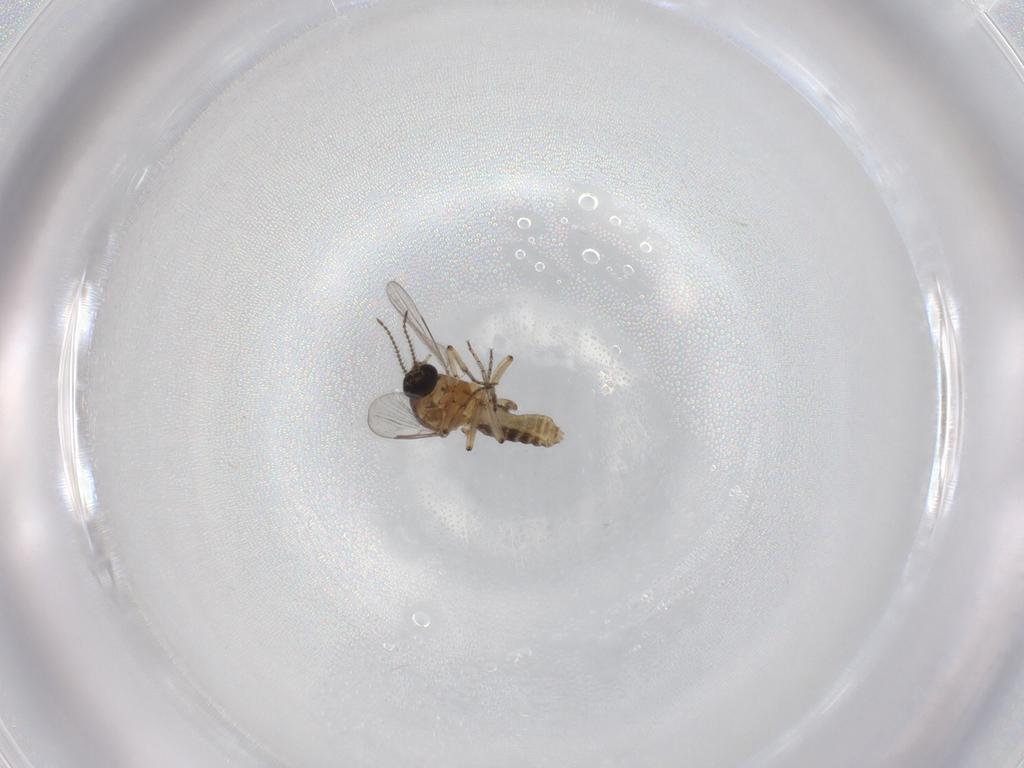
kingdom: Animalia
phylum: Arthropoda
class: Insecta
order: Diptera
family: Ceratopogonidae
